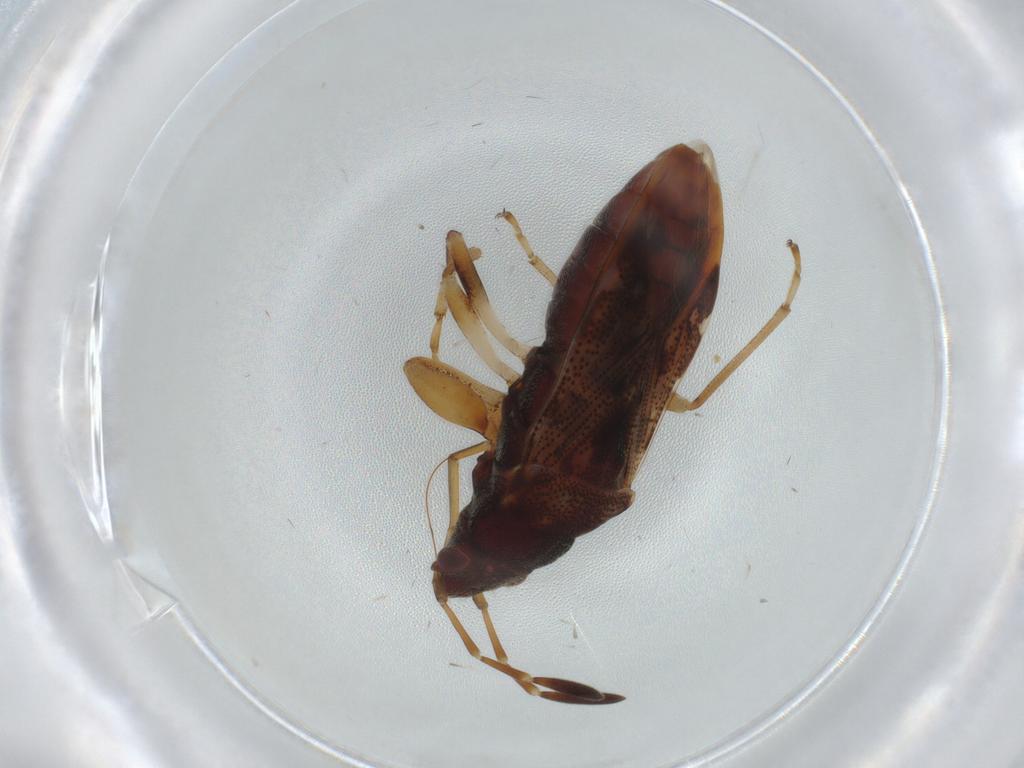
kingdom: Animalia
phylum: Arthropoda
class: Insecta
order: Hemiptera
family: Rhyparochromidae
